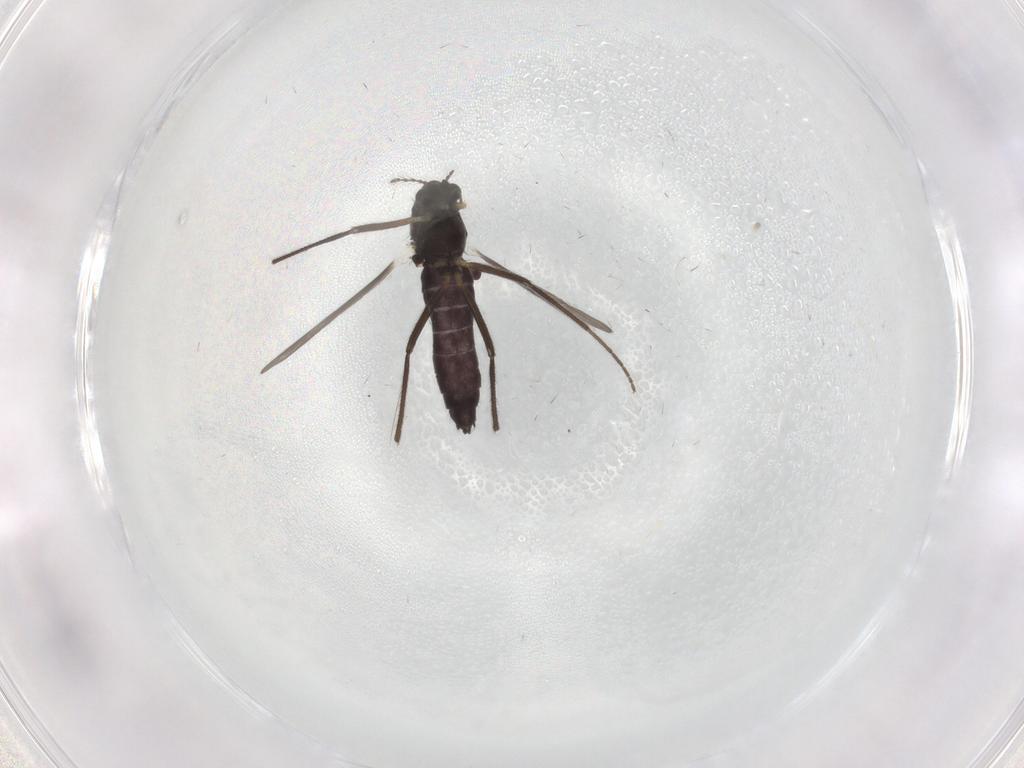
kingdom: Animalia
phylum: Arthropoda
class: Insecta
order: Diptera
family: Chironomidae
